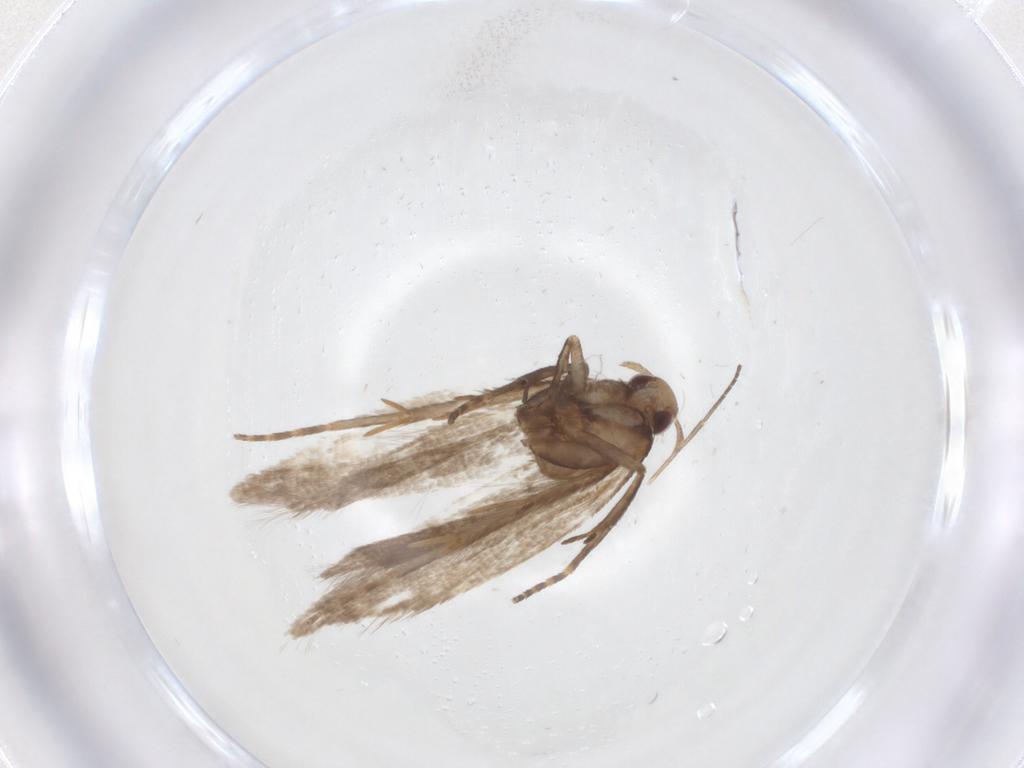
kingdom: Animalia
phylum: Arthropoda
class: Insecta
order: Lepidoptera
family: Gelechiidae
